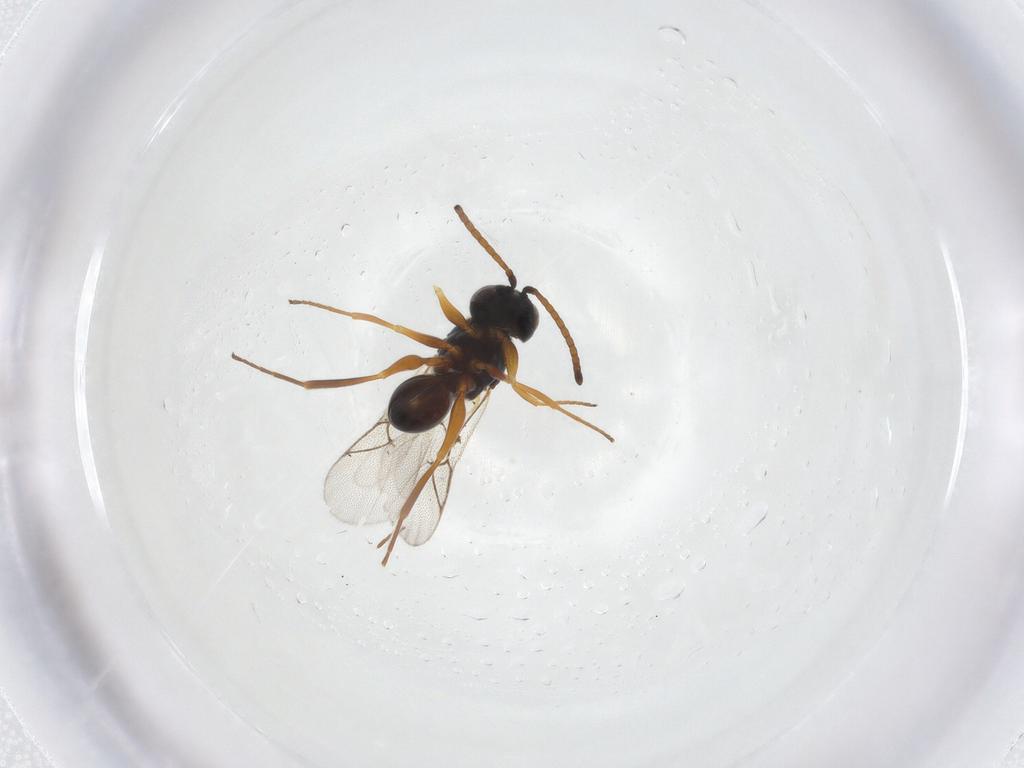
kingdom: Animalia
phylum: Arthropoda
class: Insecta
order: Hymenoptera
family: Figitidae
